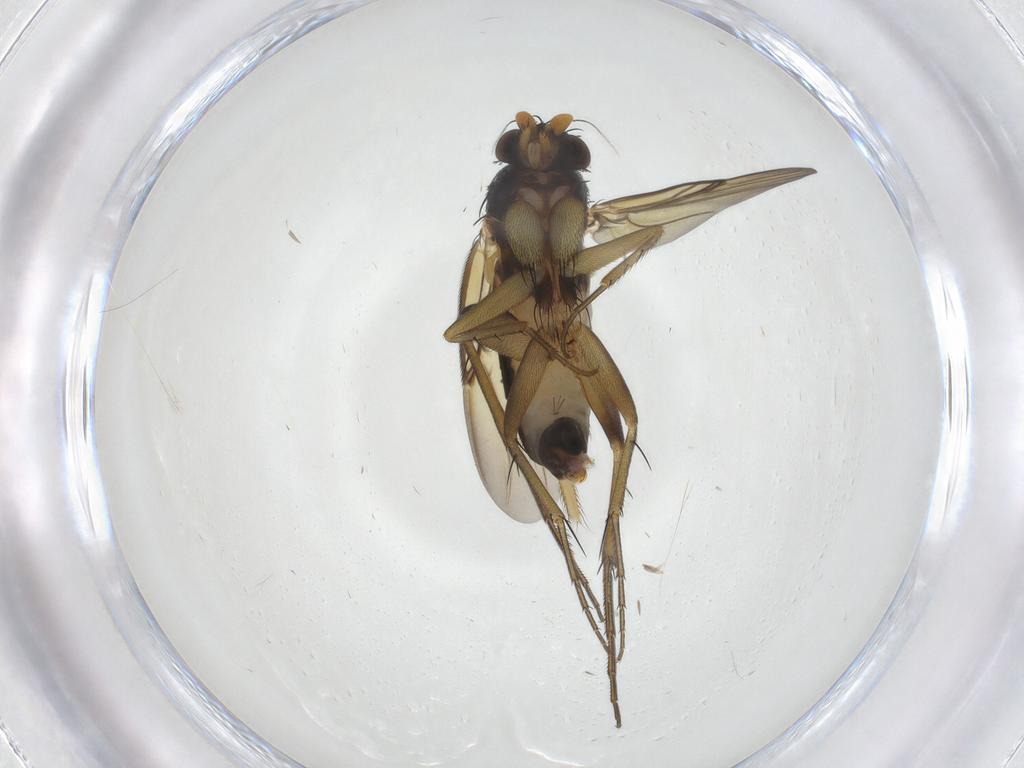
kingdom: Animalia
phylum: Arthropoda
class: Insecta
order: Diptera
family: Phoridae
